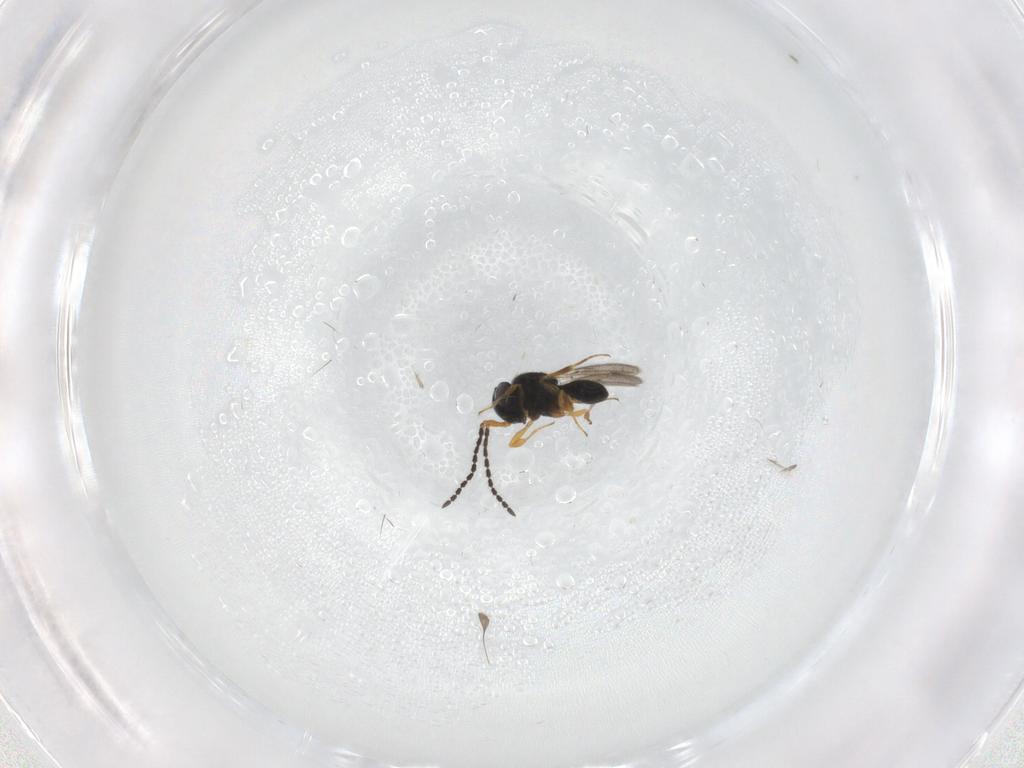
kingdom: Animalia
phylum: Arthropoda
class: Insecta
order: Hymenoptera
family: Scelionidae
